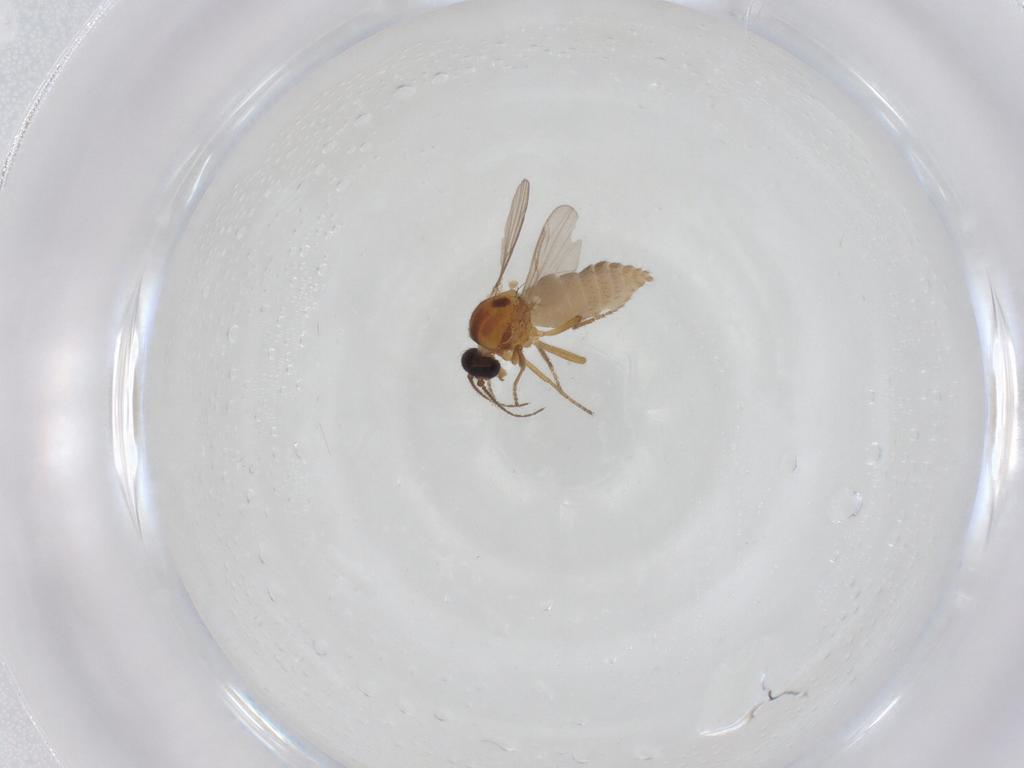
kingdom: Animalia
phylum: Arthropoda
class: Insecta
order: Diptera
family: Ceratopogonidae
